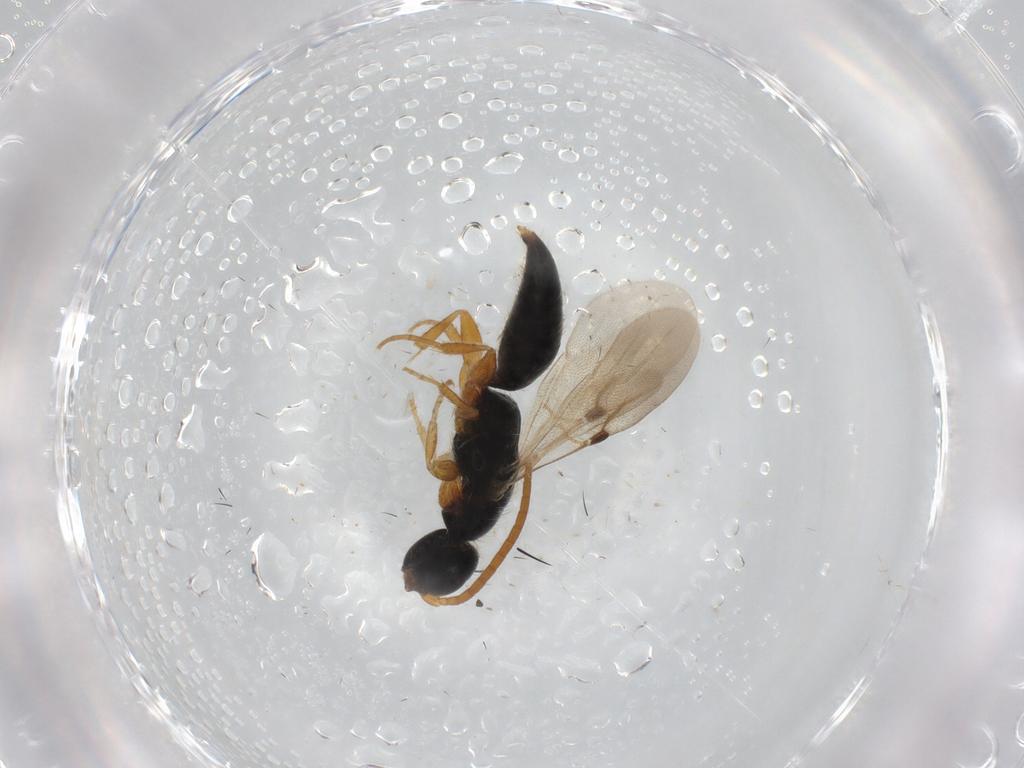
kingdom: Animalia
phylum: Arthropoda
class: Insecta
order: Hymenoptera
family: Bethylidae
